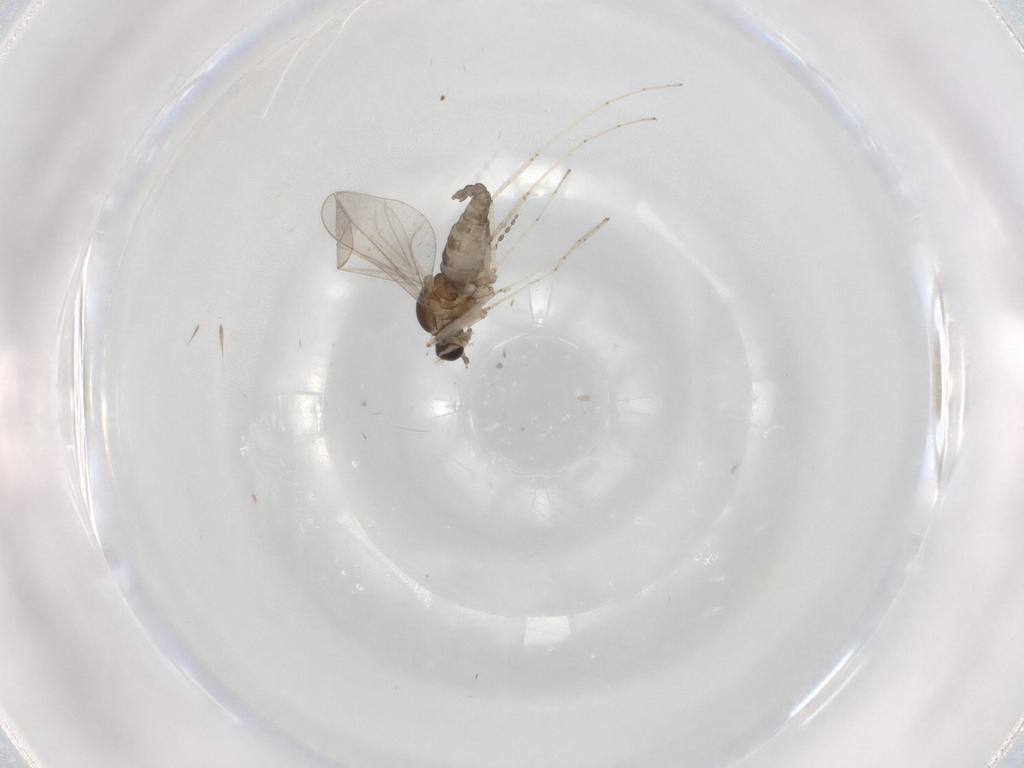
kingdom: Animalia
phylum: Arthropoda
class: Insecta
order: Diptera
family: Cecidomyiidae
